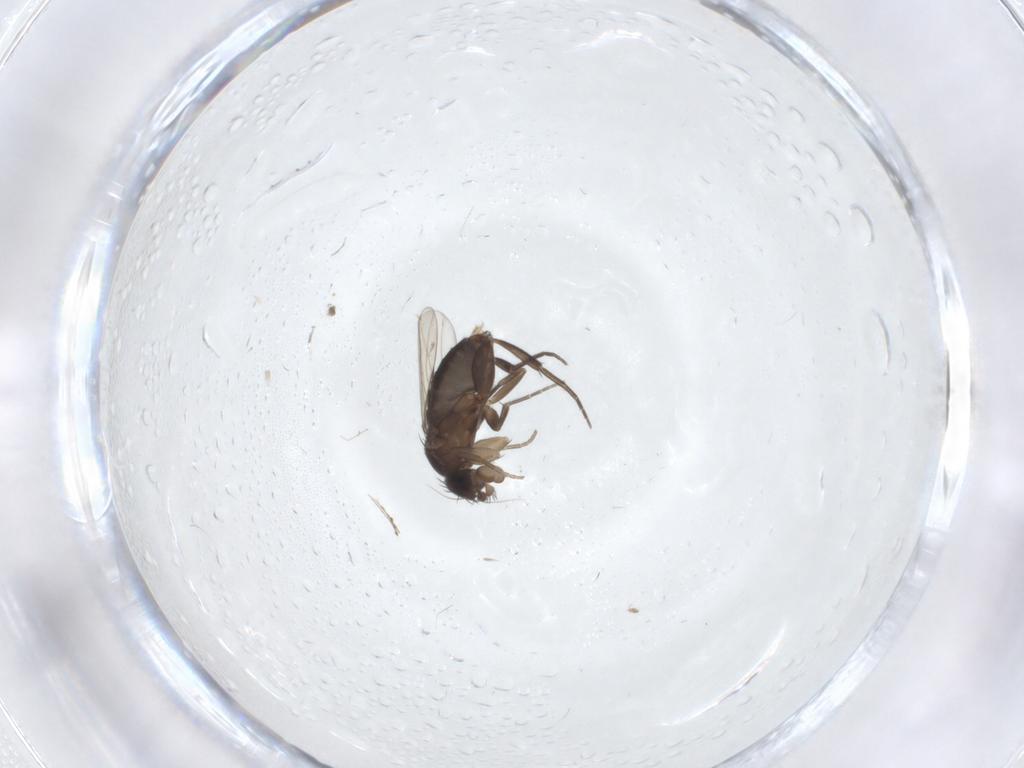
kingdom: Animalia
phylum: Arthropoda
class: Insecta
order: Diptera
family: Phoridae
